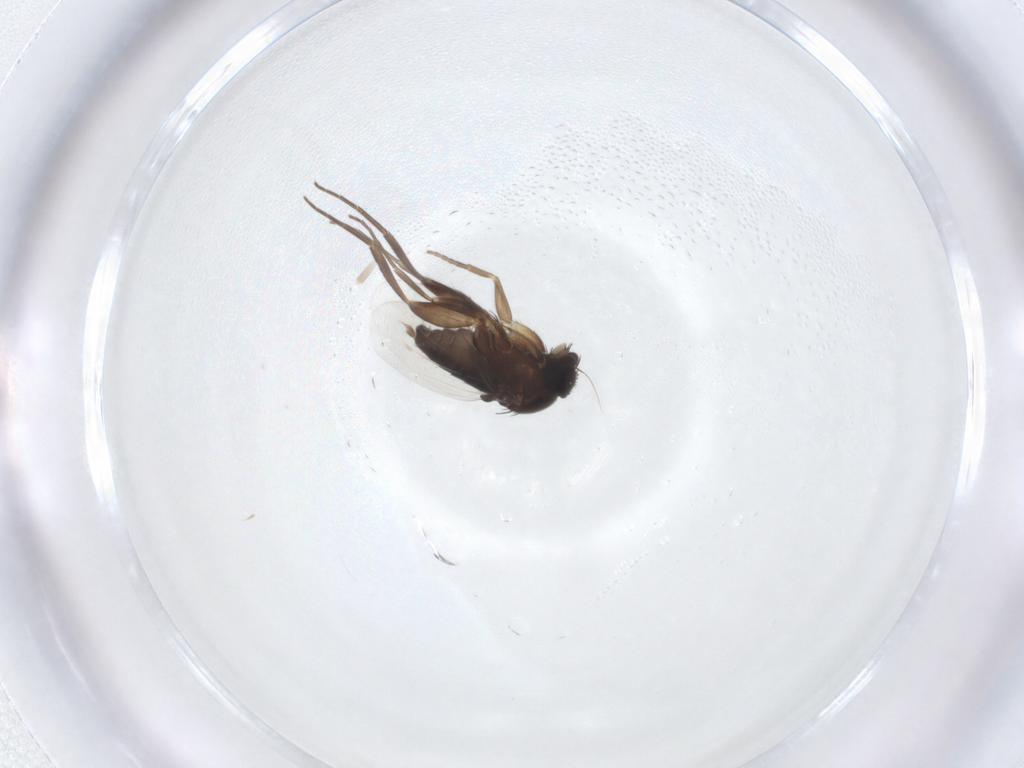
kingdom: Animalia
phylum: Arthropoda
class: Insecta
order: Diptera
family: Phoridae
